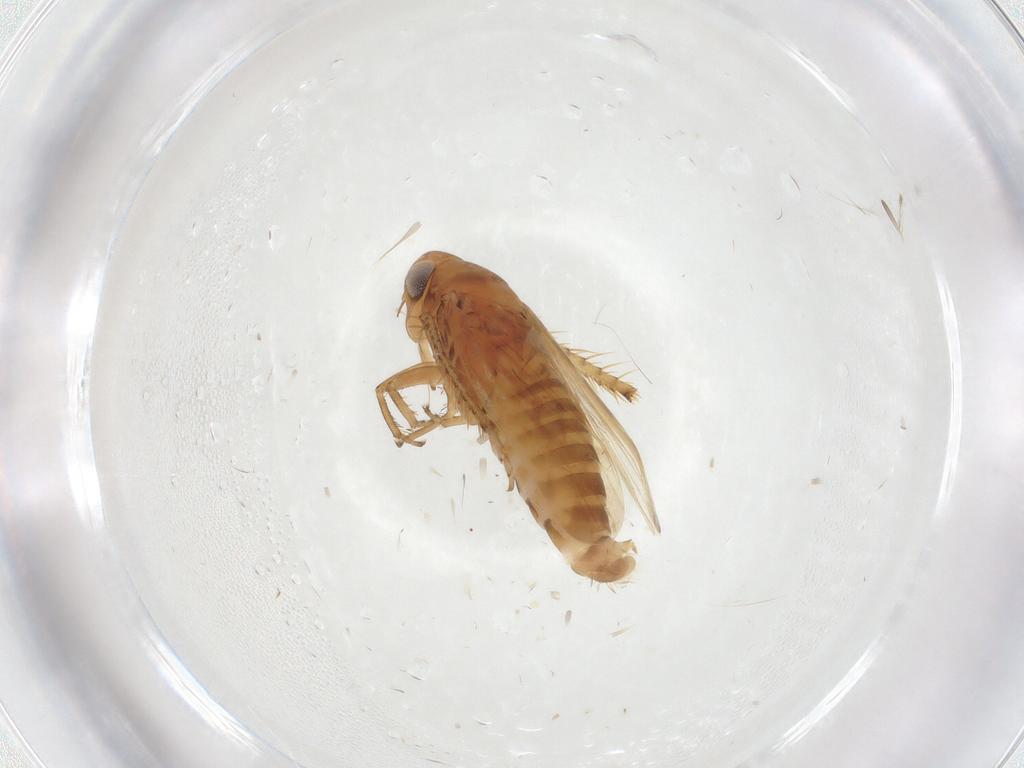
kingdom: Animalia
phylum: Arthropoda
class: Insecta
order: Hemiptera
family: Cicadellidae
